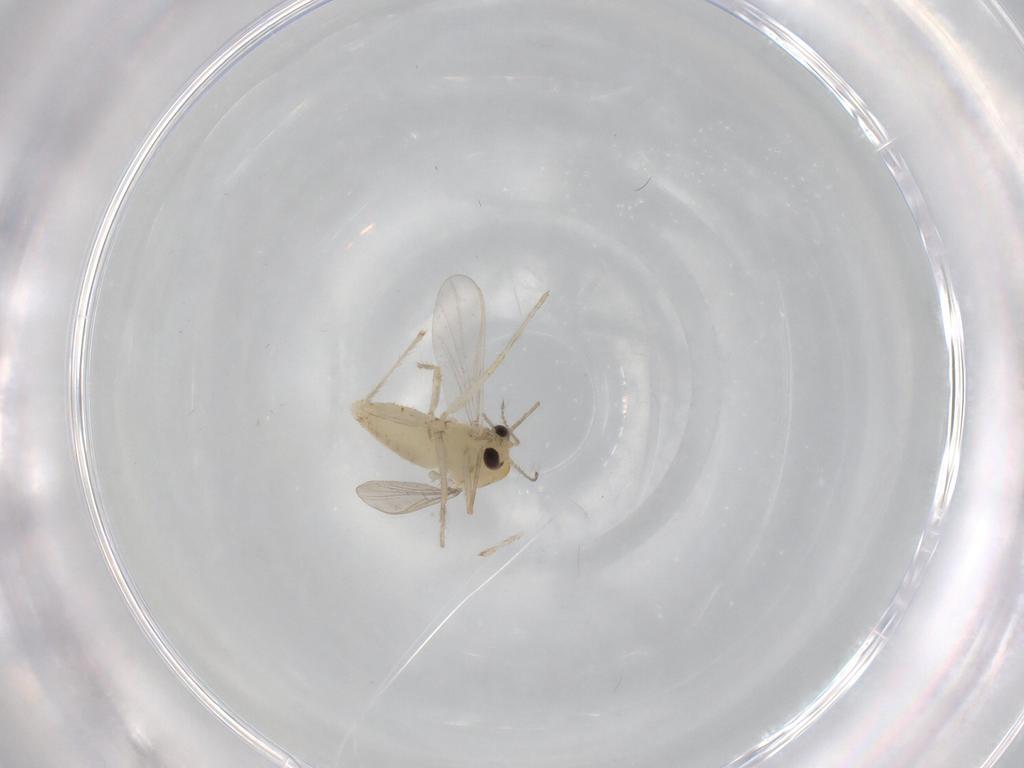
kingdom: Animalia
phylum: Arthropoda
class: Insecta
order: Diptera
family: Chironomidae
